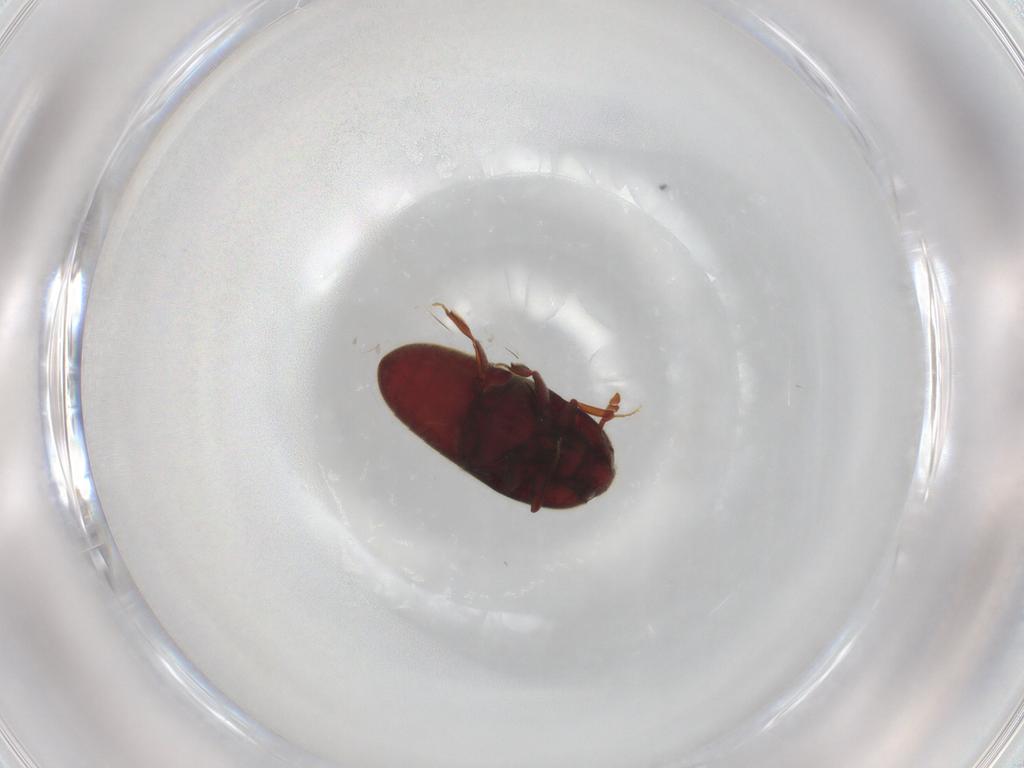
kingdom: Animalia
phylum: Arthropoda
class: Insecta
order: Coleoptera
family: Throscidae
